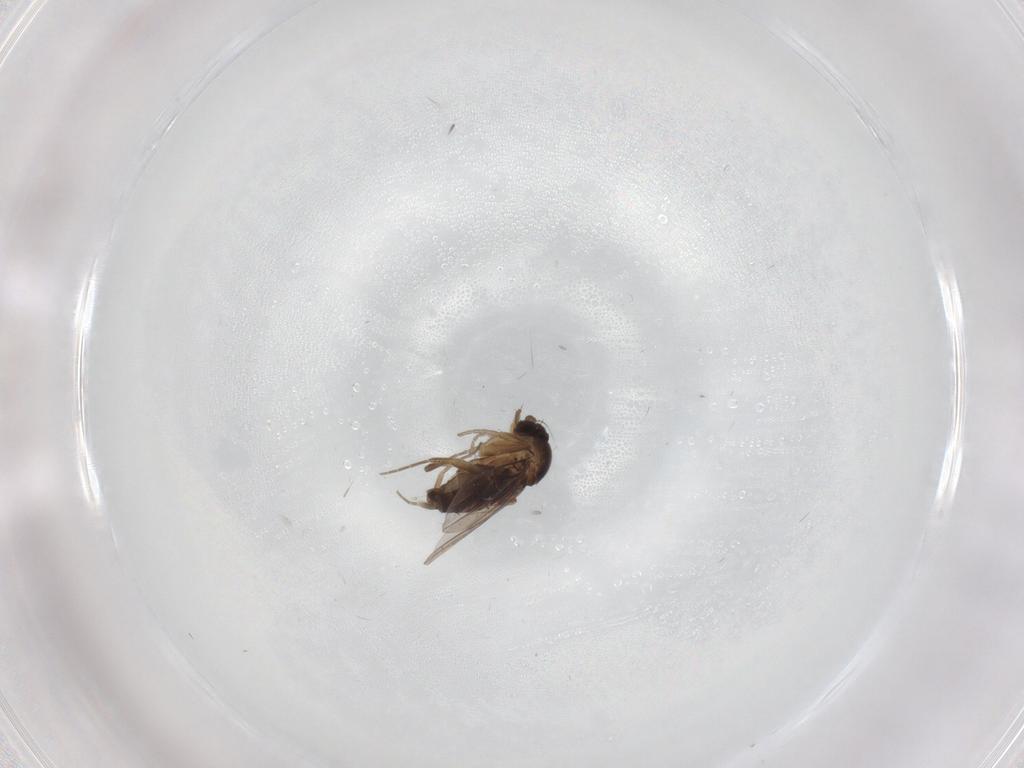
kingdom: Animalia
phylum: Arthropoda
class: Insecta
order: Diptera
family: Phoridae
